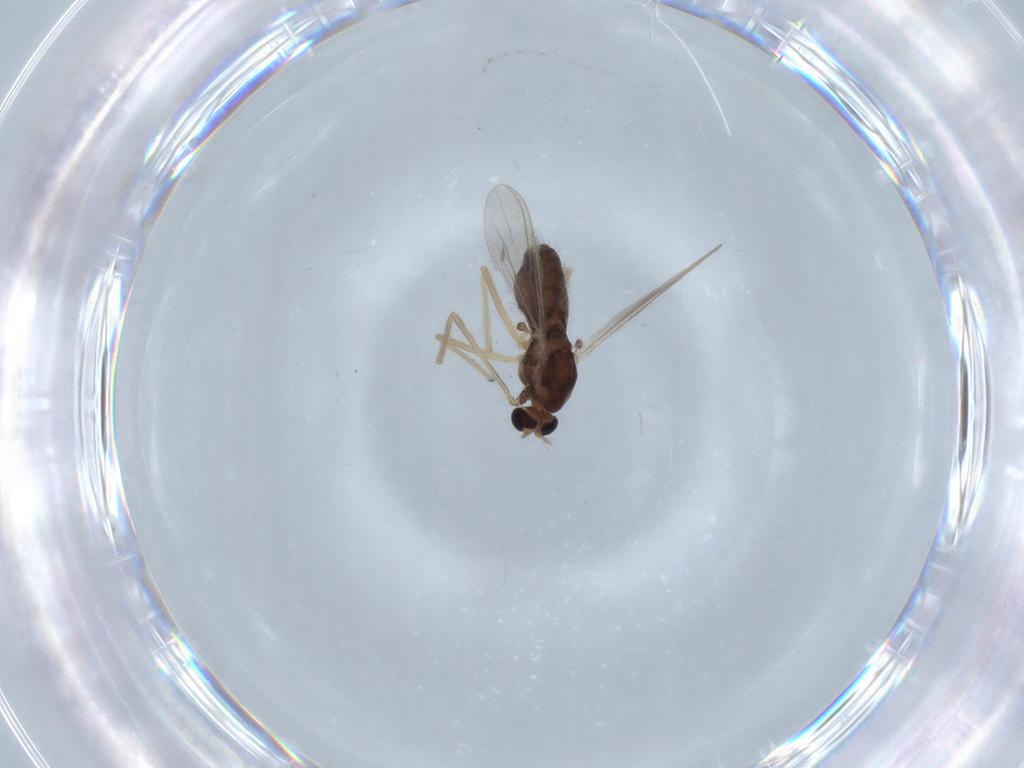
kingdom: Animalia
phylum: Arthropoda
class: Insecta
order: Diptera
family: Chironomidae
